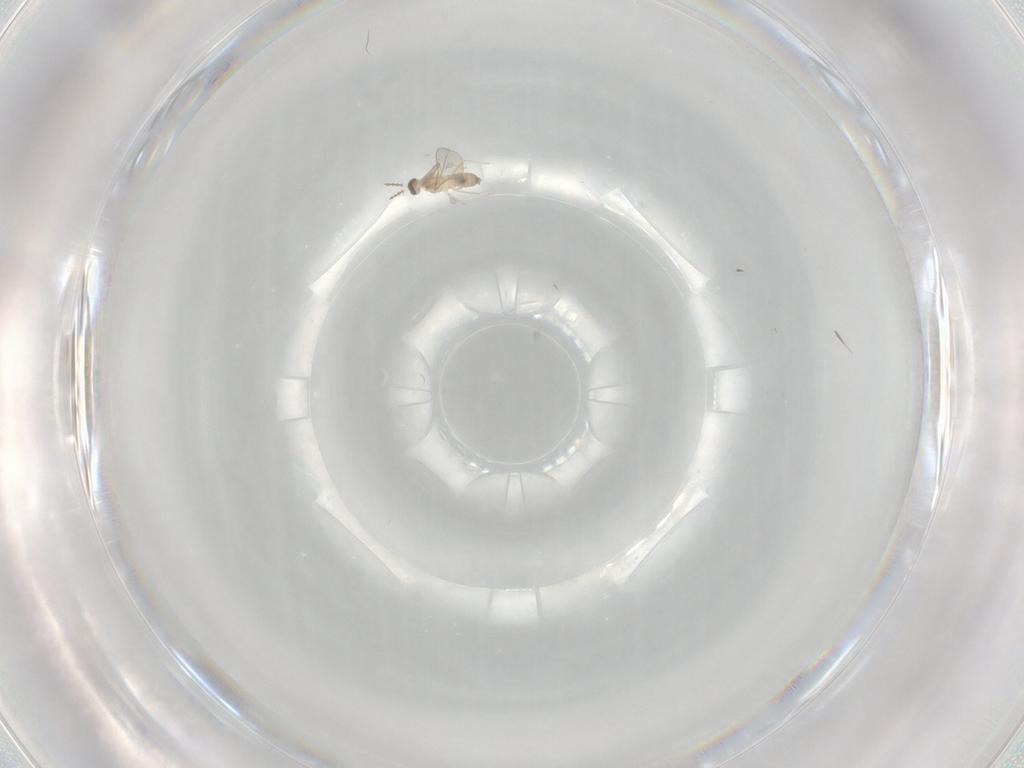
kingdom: Animalia
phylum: Arthropoda
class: Insecta
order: Diptera
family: Cecidomyiidae
